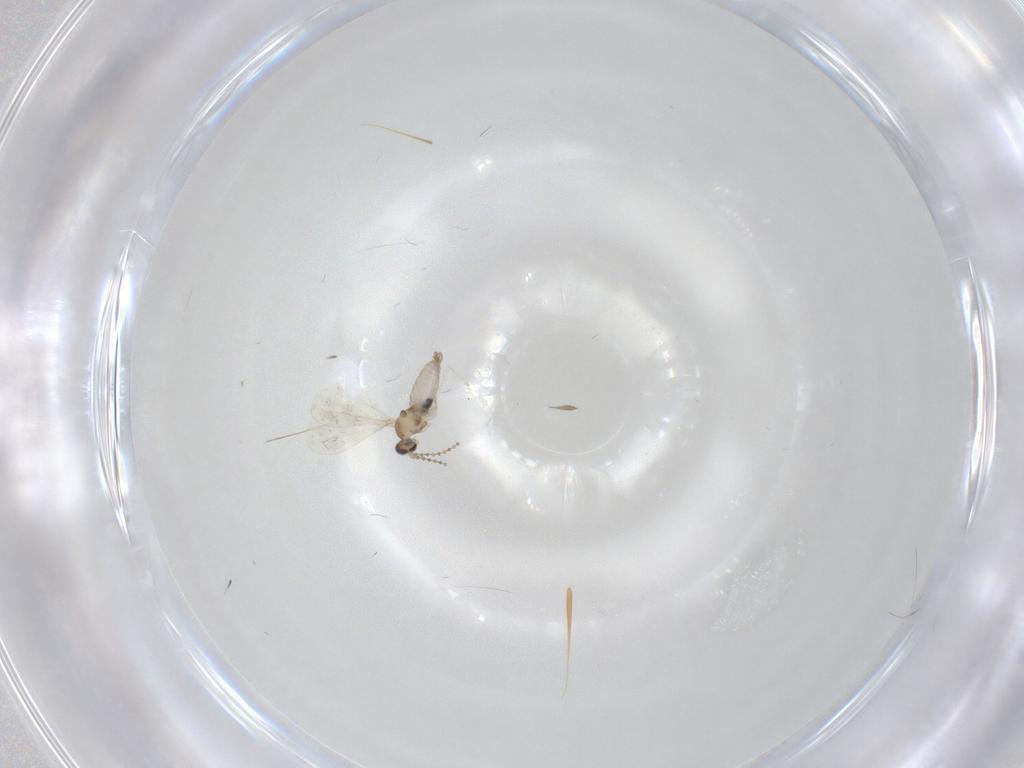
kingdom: Animalia
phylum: Arthropoda
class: Insecta
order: Diptera
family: Cecidomyiidae
